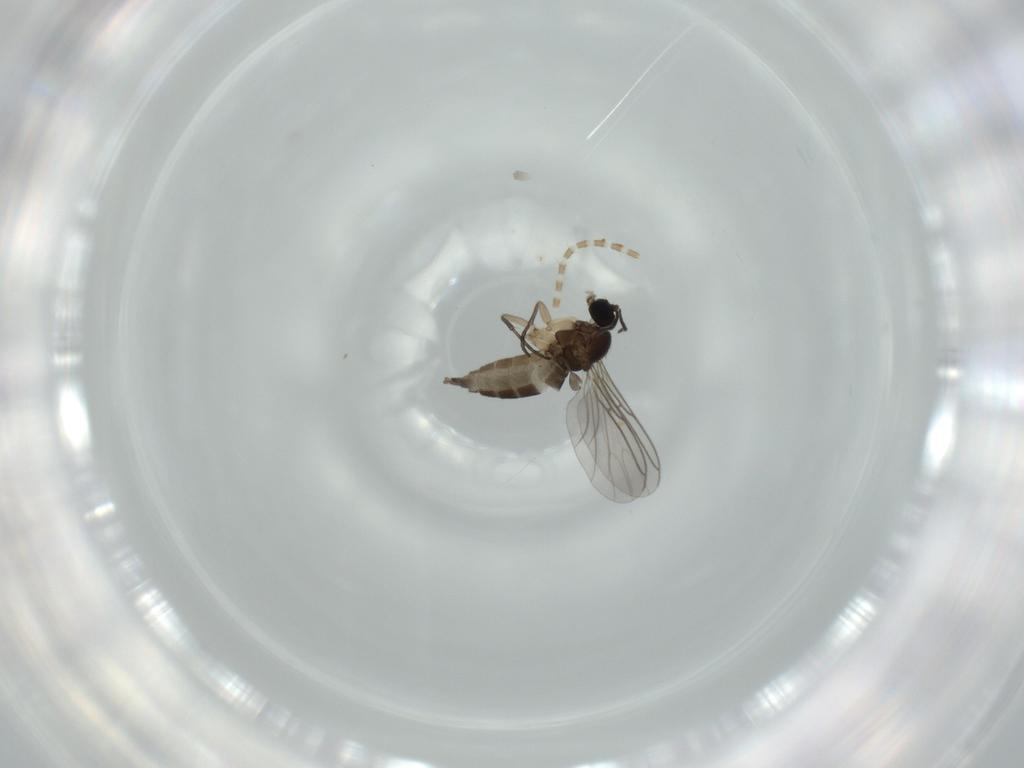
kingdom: Animalia
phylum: Arthropoda
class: Insecta
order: Diptera
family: Sciaridae
